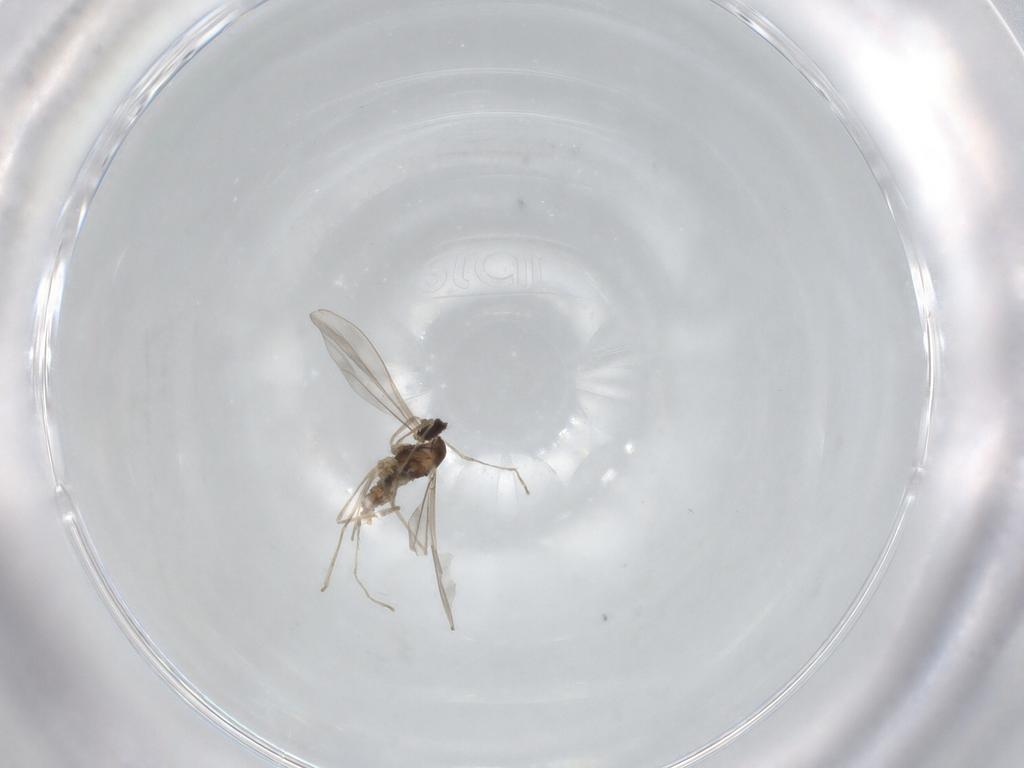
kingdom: Animalia
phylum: Arthropoda
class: Insecta
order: Diptera
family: Cecidomyiidae
